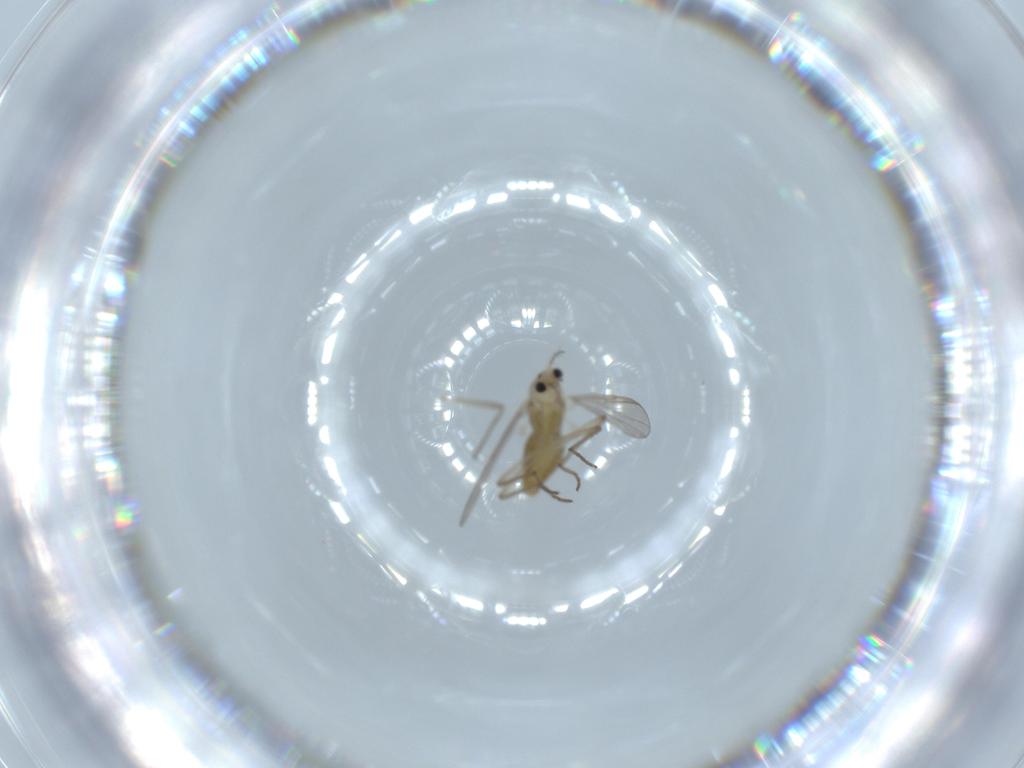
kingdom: Animalia
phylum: Arthropoda
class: Insecta
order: Diptera
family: Chironomidae
